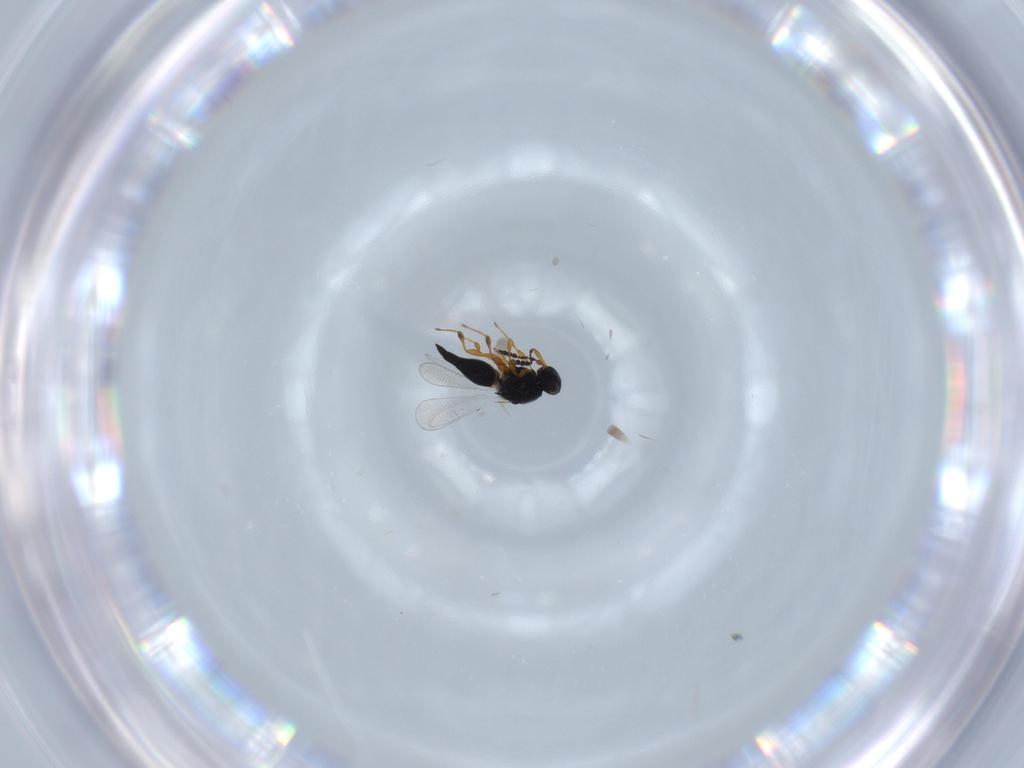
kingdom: Animalia
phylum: Arthropoda
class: Insecta
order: Hymenoptera
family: Platygastridae
